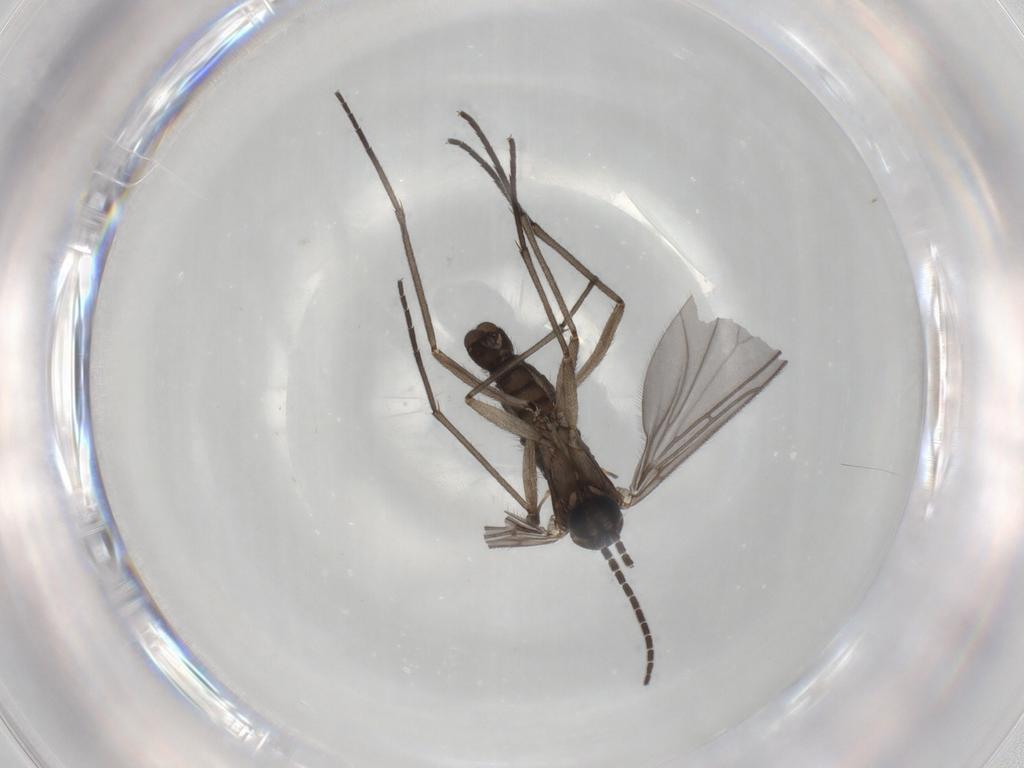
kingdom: Animalia
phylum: Arthropoda
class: Insecta
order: Diptera
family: Sciaridae
